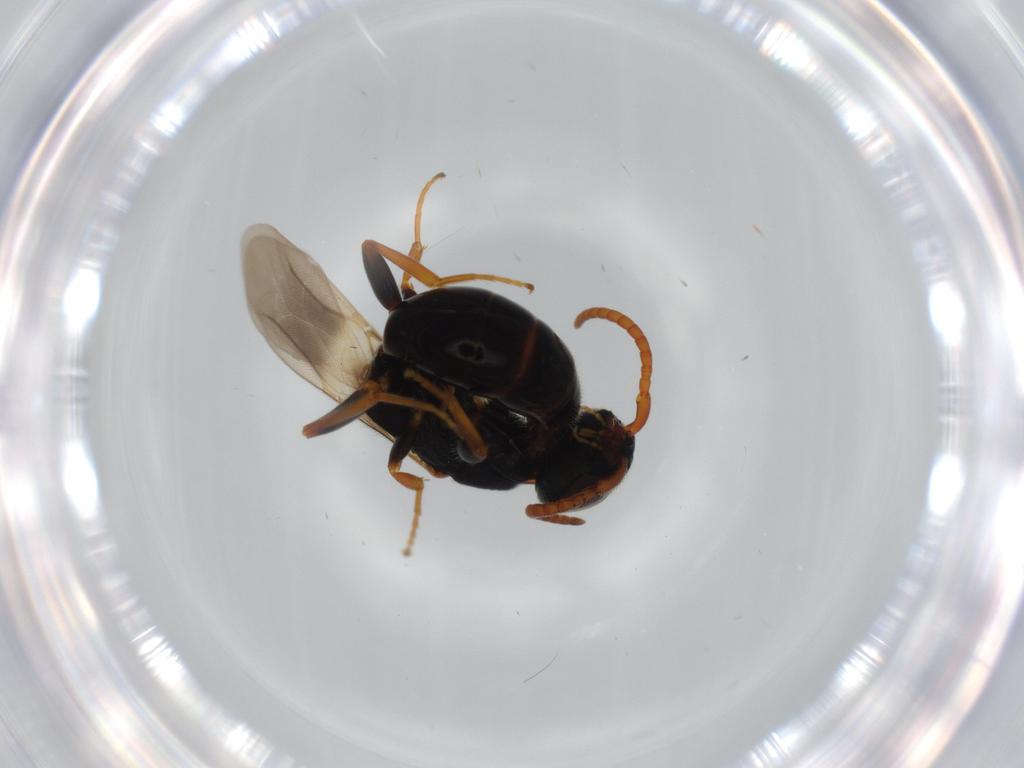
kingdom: Animalia
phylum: Arthropoda
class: Insecta
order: Hymenoptera
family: Bethylidae
